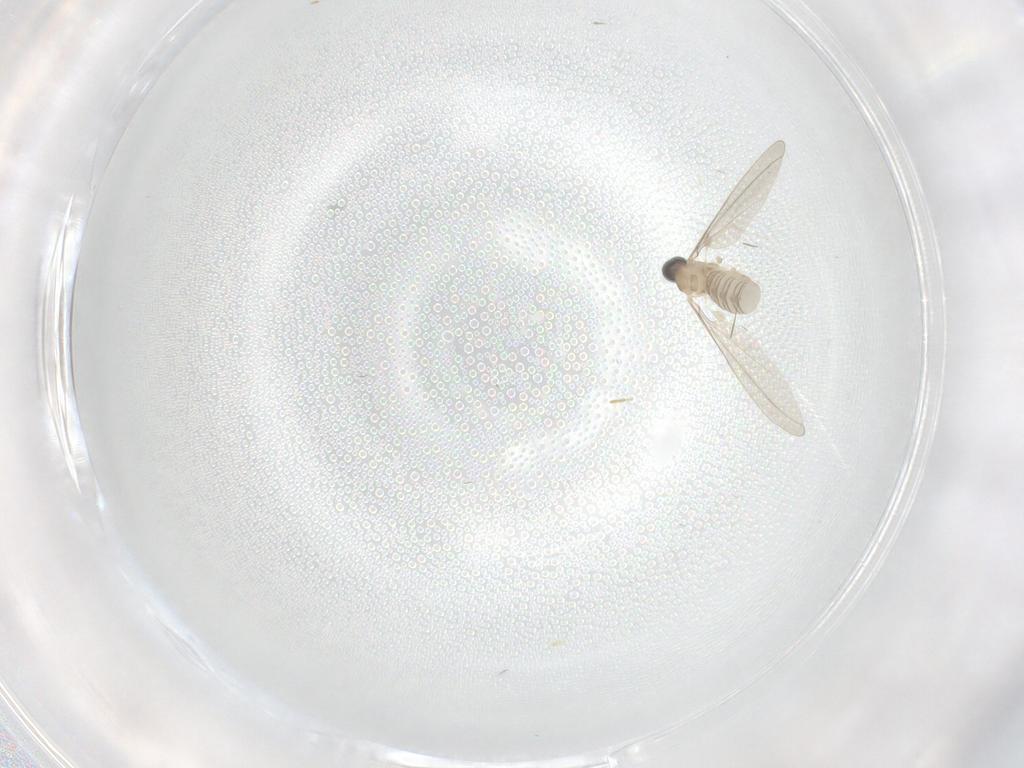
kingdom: Animalia
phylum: Arthropoda
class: Insecta
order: Diptera
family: Cecidomyiidae
